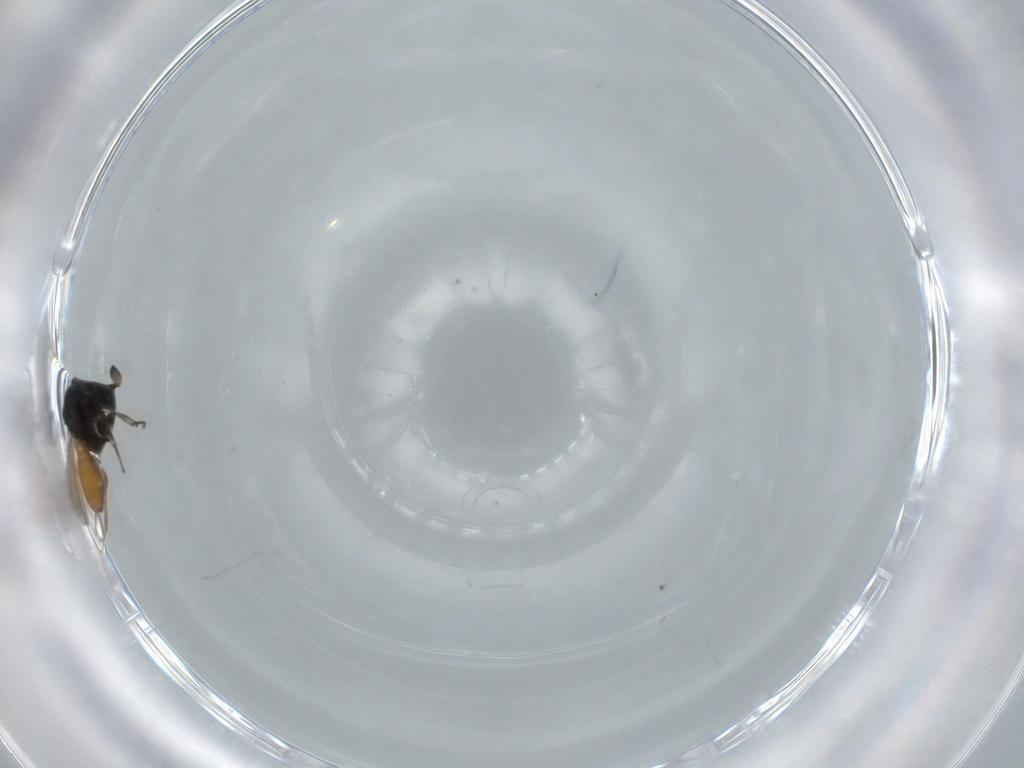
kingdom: Animalia
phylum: Arthropoda
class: Insecta
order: Hymenoptera
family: Scelionidae
